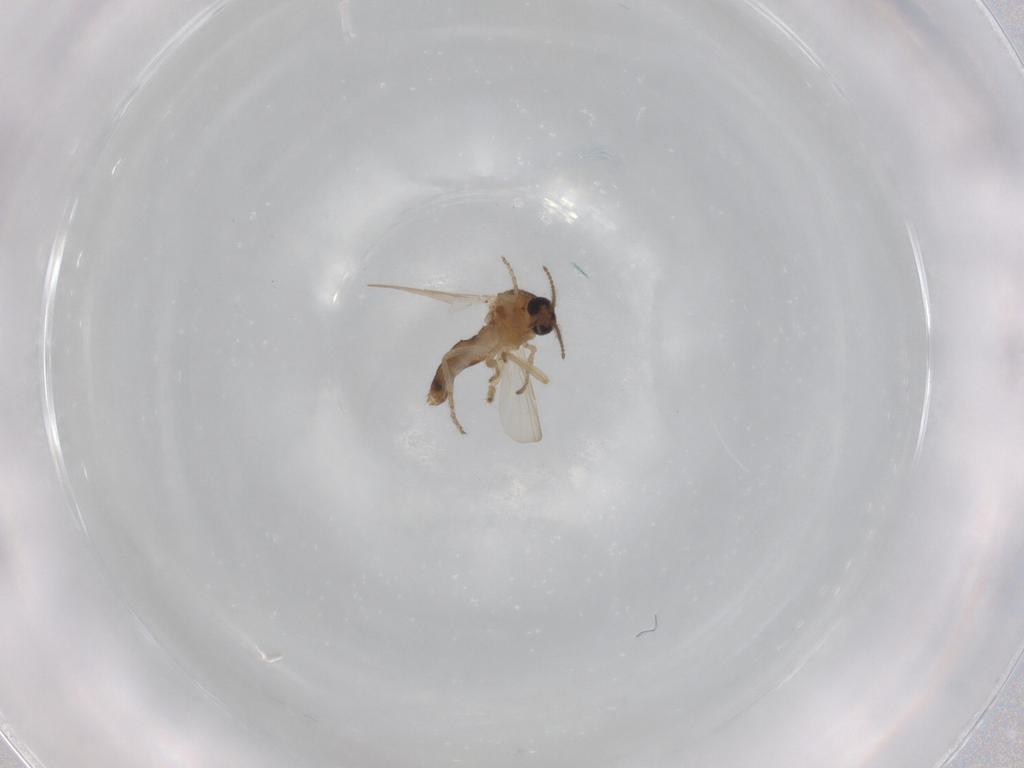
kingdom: Animalia
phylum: Arthropoda
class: Insecta
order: Diptera
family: Ceratopogonidae
